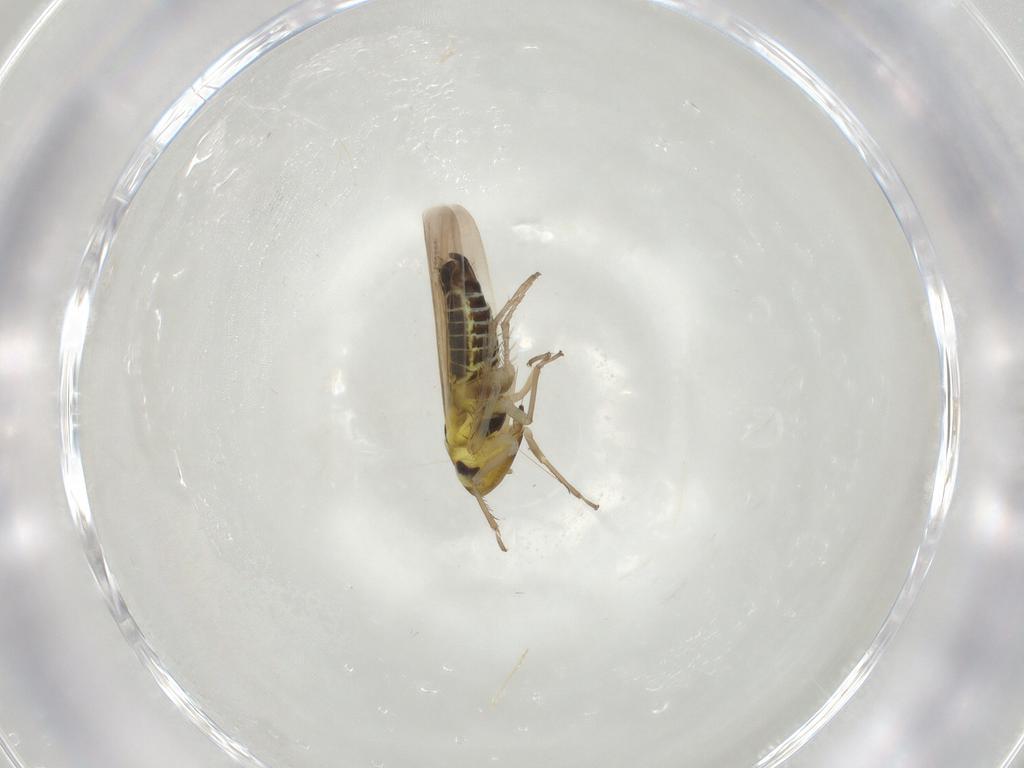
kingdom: Animalia
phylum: Arthropoda
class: Insecta
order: Hemiptera
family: Cicadellidae
